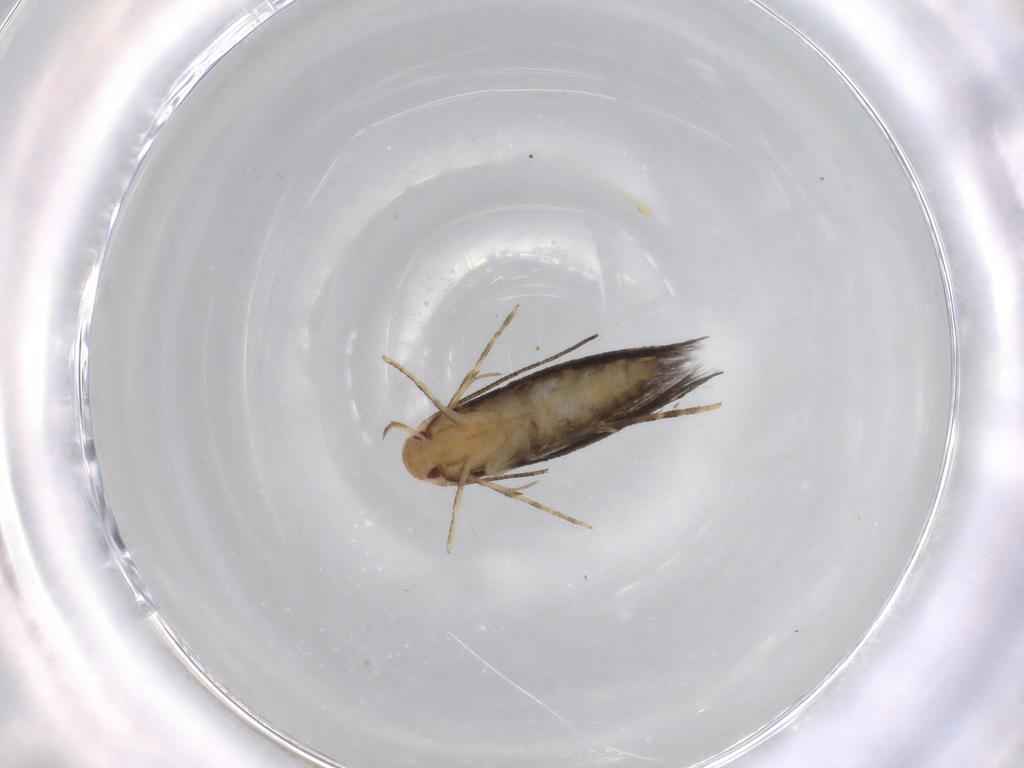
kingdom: Animalia
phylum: Arthropoda
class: Insecta
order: Lepidoptera
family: Momphidae
